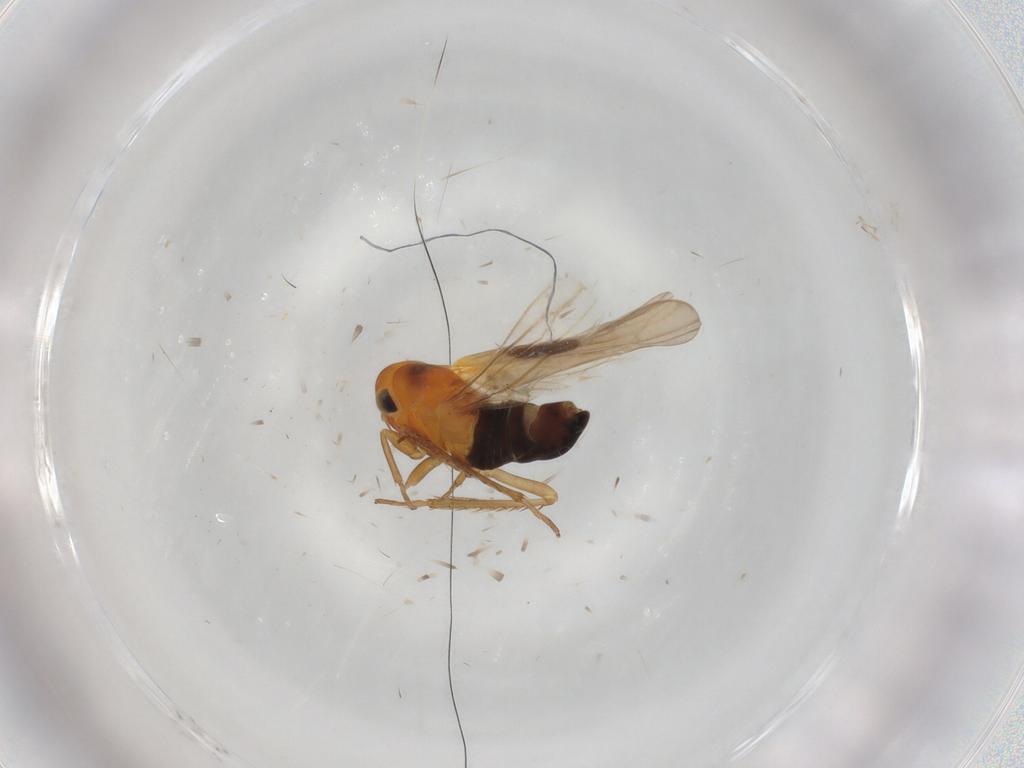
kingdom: Animalia
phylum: Arthropoda
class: Insecta
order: Hemiptera
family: Cicadellidae
